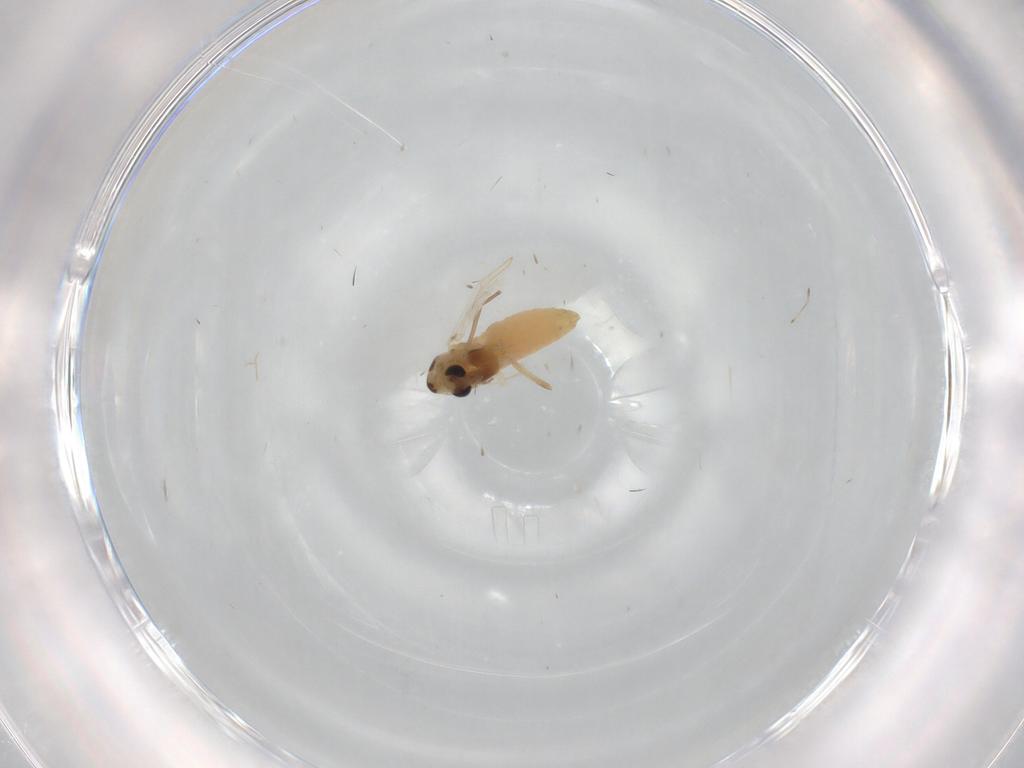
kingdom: Animalia
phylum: Arthropoda
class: Insecta
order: Diptera
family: Chironomidae
